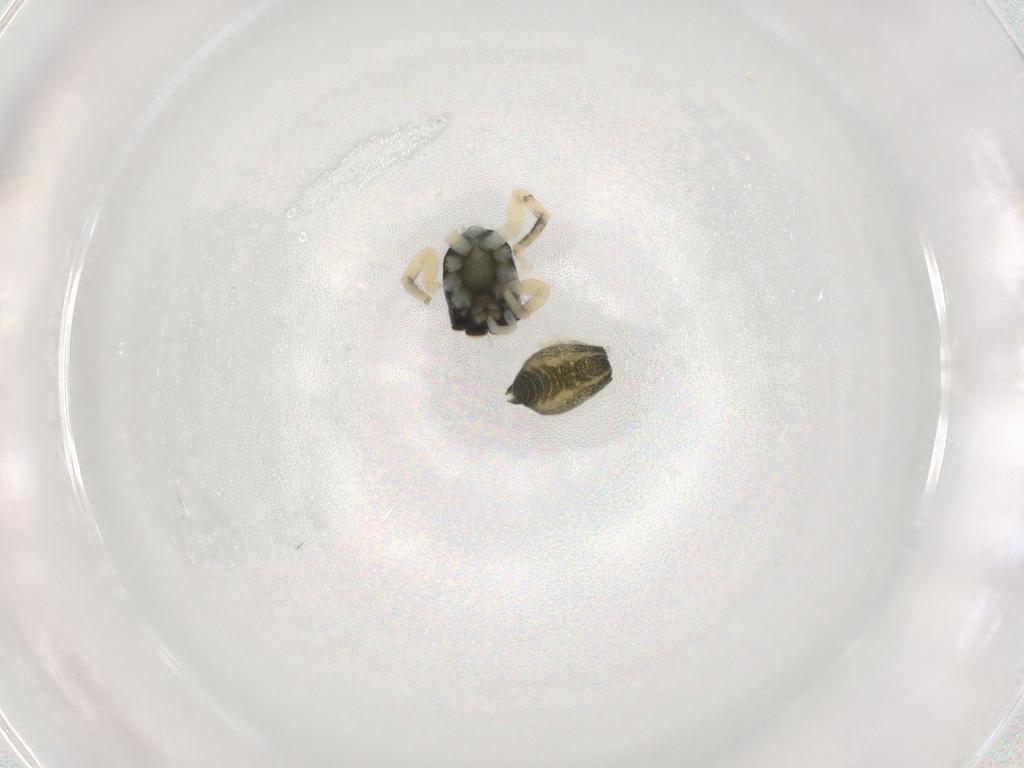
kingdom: Animalia
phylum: Arthropoda
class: Arachnida
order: Araneae
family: Salticidae
